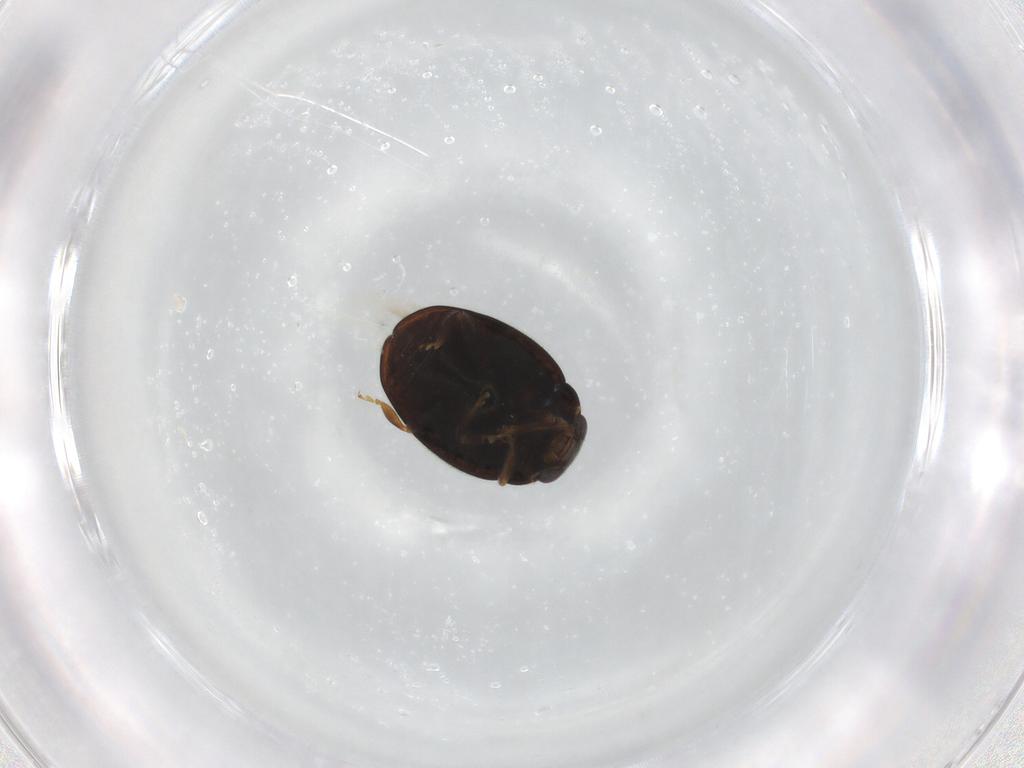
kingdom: Animalia
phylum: Arthropoda
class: Insecta
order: Coleoptera
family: Coccinellidae
